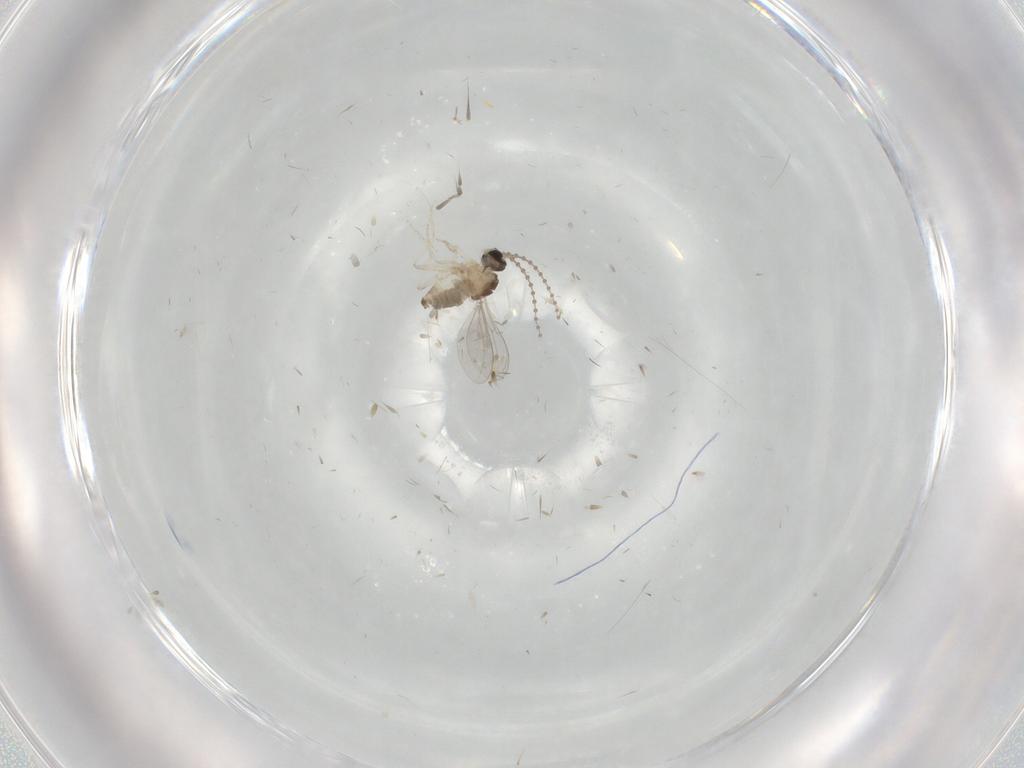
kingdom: Animalia
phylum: Arthropoda
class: Insecta
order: Diptera
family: Cecidomyiidae
